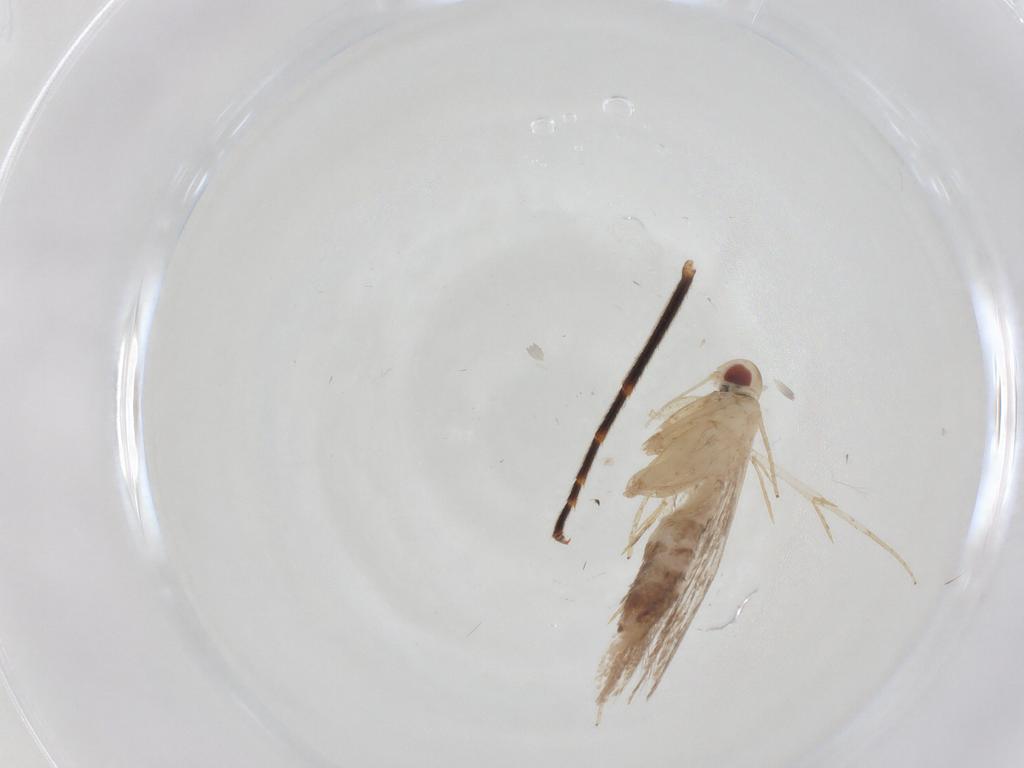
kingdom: Animalia
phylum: Arthropoda
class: Insecta
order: Lepidoptera
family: Cosmopterigidae
